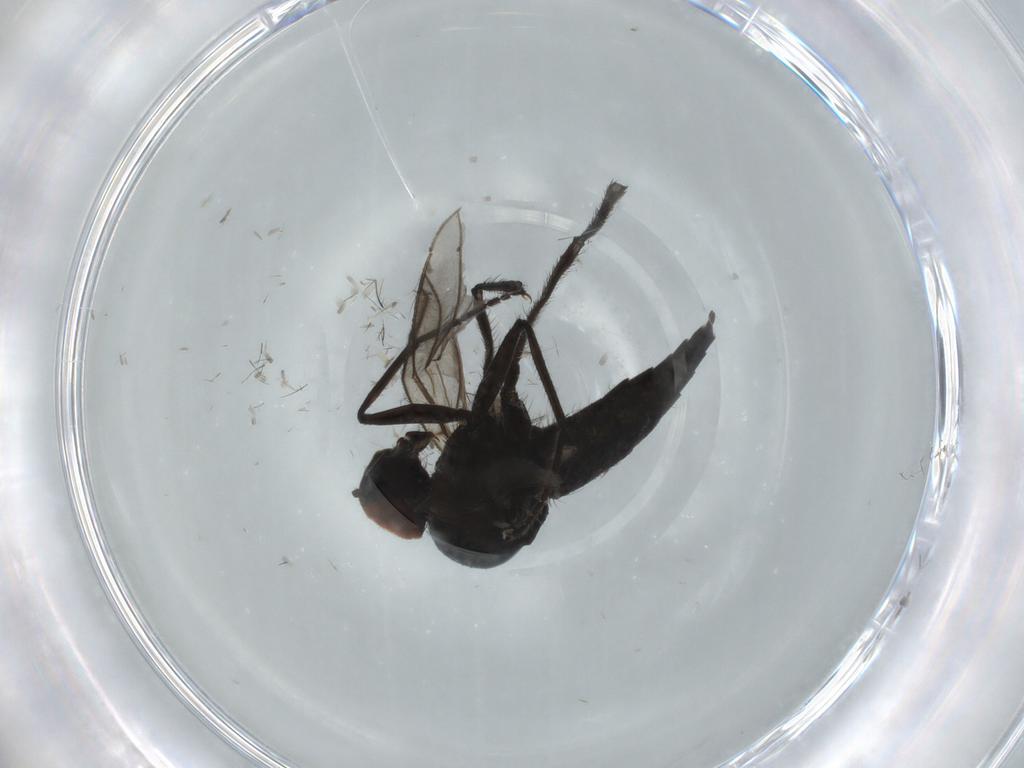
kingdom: Animalia
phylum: Arthropoda
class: Insecta
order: Diptera
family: Hybotidae
